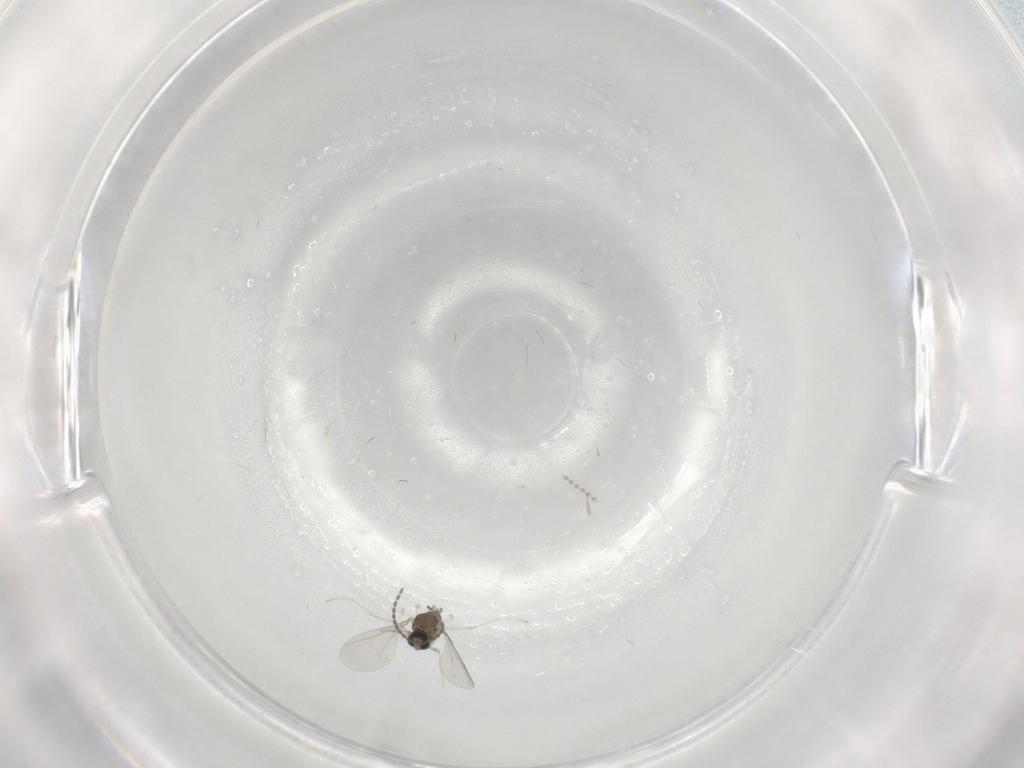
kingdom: Animalia
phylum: Arthropoda
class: Insecta
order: Diptera
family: Cecidomyiidae
